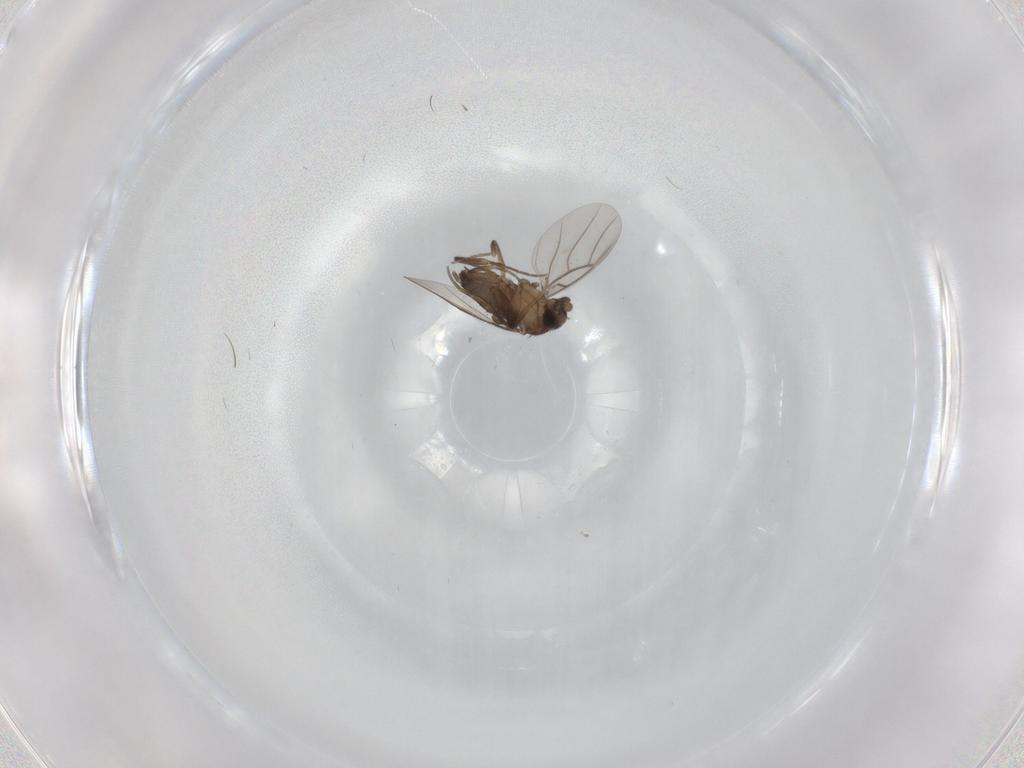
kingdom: Animalia
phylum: Arthropoda
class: Insecta
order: Diptera
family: Phoridae
